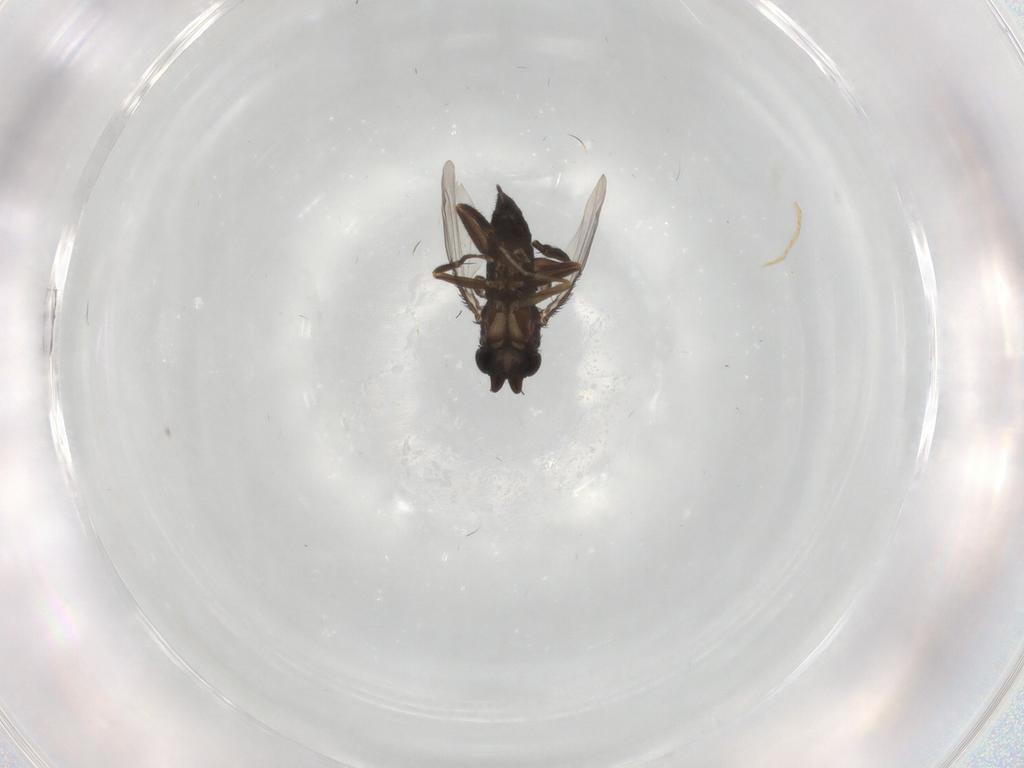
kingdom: Animalia
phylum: Arthropoda
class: Insecta
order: Diptera
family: Cecidomyiidae
